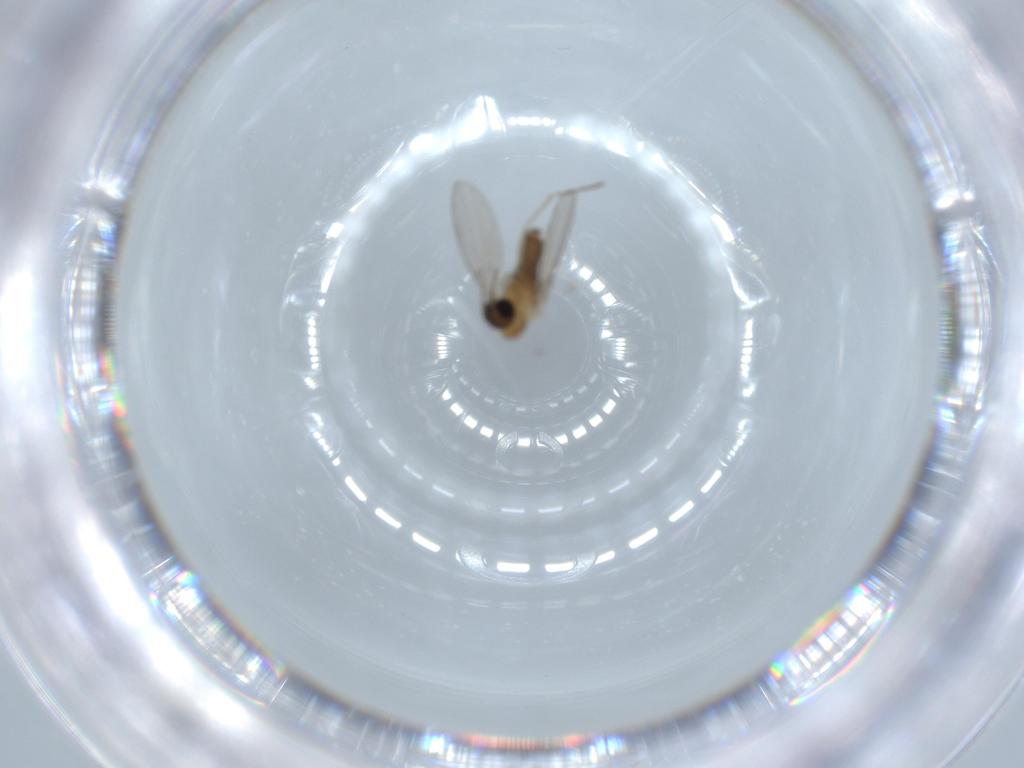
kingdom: Animalia
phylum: Arthropoda
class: Insecta
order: Diptera
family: Psychodidae
